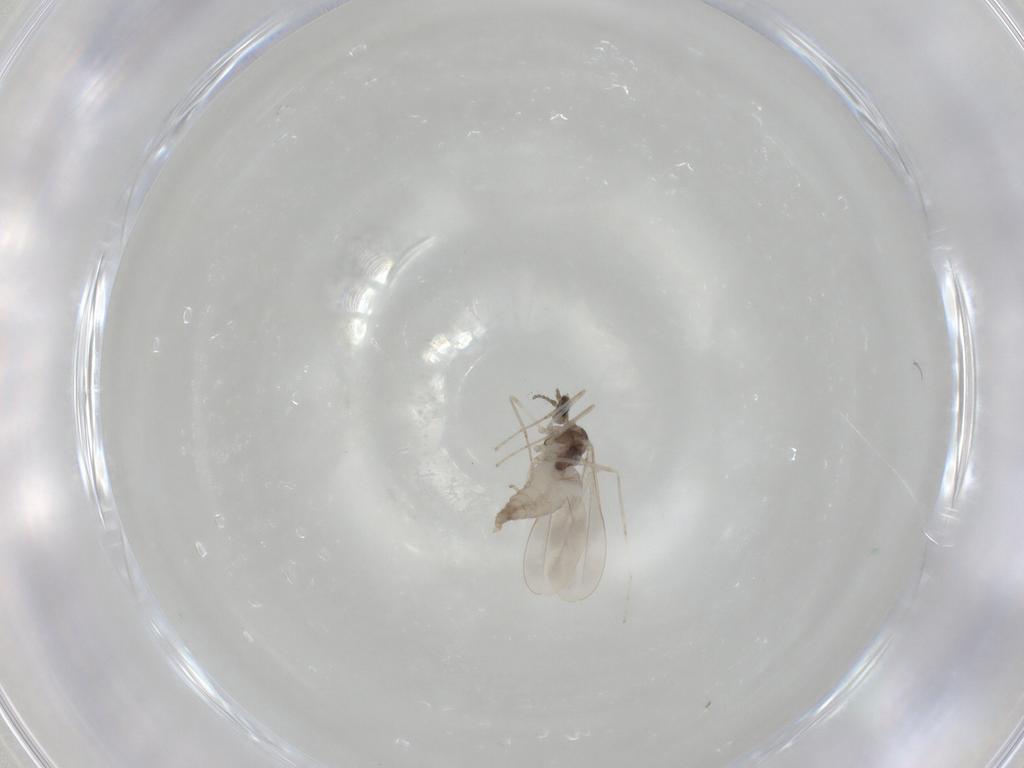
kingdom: Animalia
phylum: Arthropoda
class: Insecta
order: Diptera
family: Cecidomyiidae
